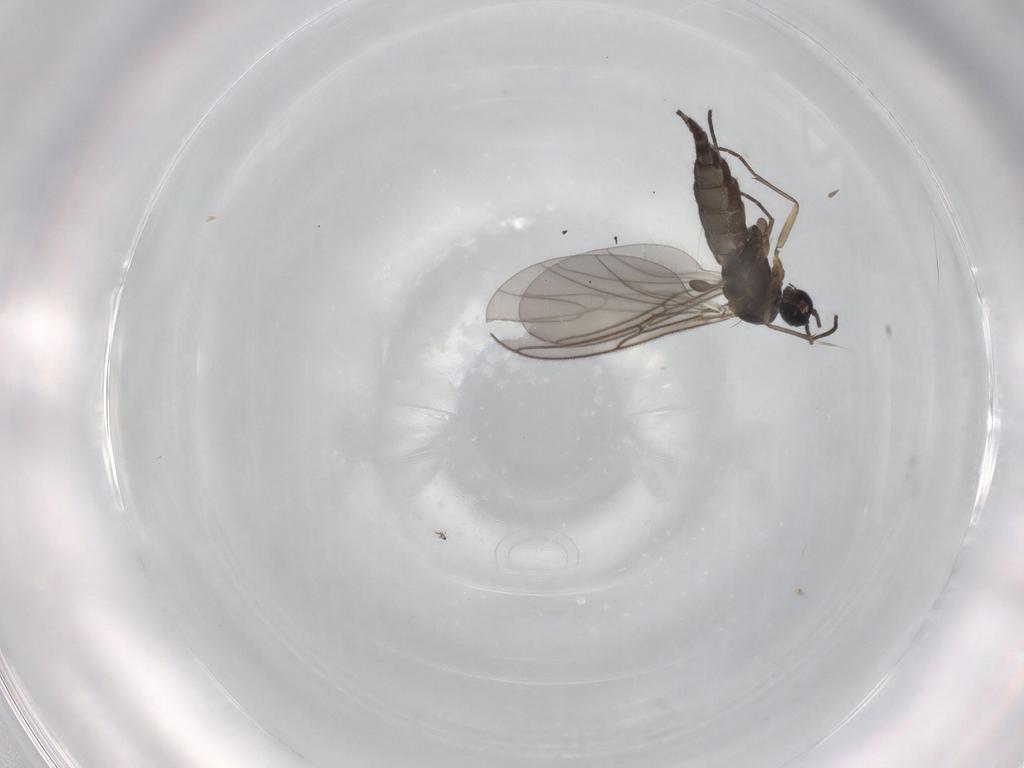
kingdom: Animalia
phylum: Arthropoda
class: Insecta
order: Diptera
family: Sciaridae
